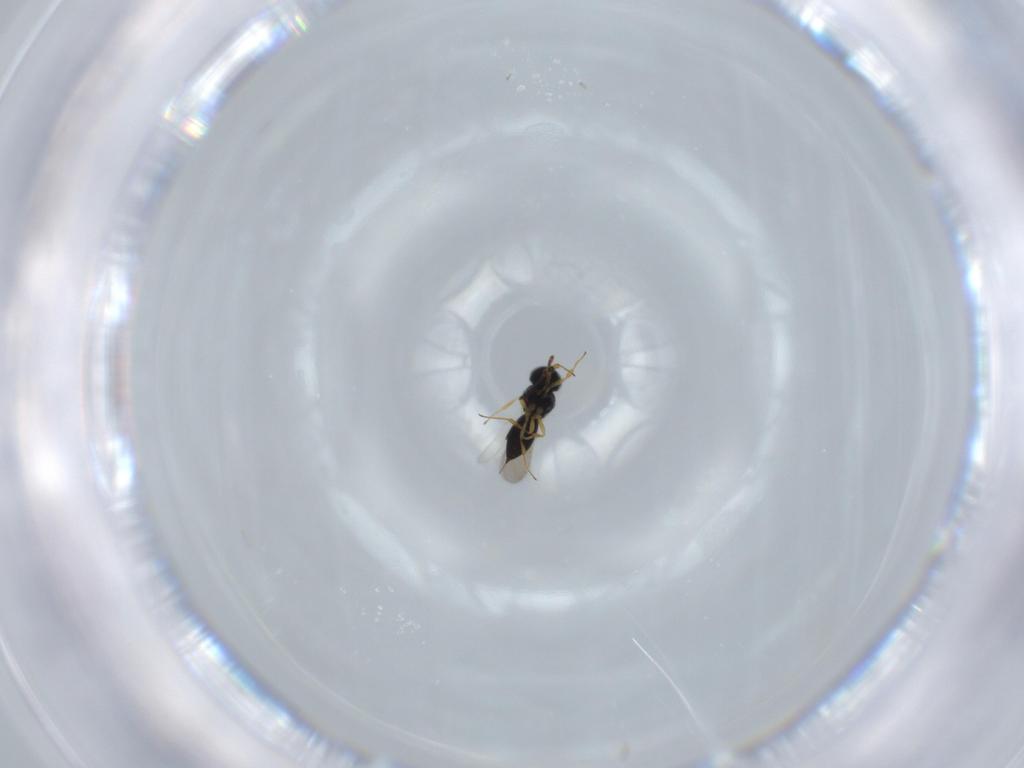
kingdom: Animalia
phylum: Arthropoda
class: Insecta
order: Hymenoptera
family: Scelionidae
